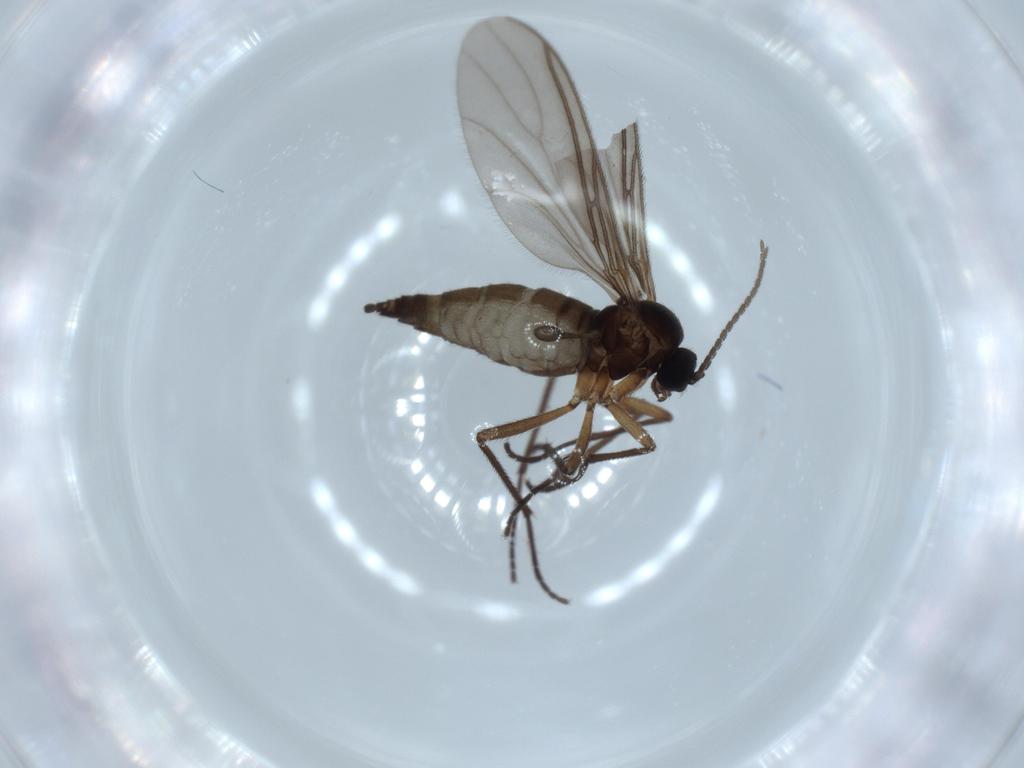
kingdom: Animalia
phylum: Arthropoda
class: Insecta
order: Diptera
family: Sciaridae
